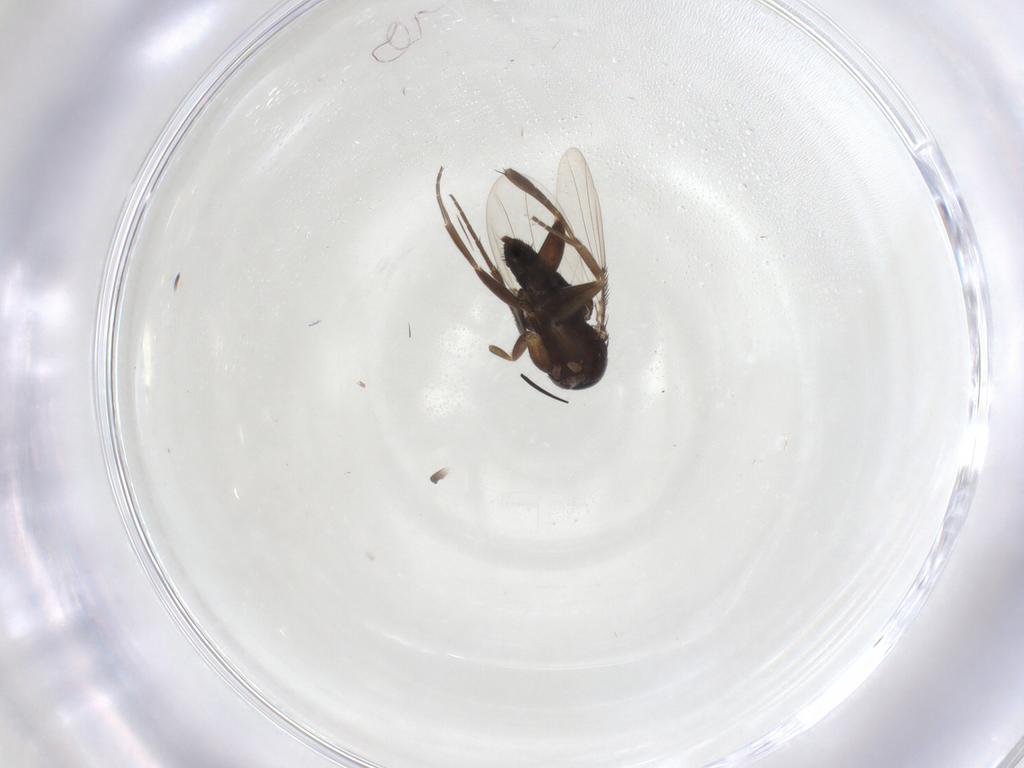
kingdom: Animalia
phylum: Arthropoda
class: Insecta
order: Diptera
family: Phoridae
